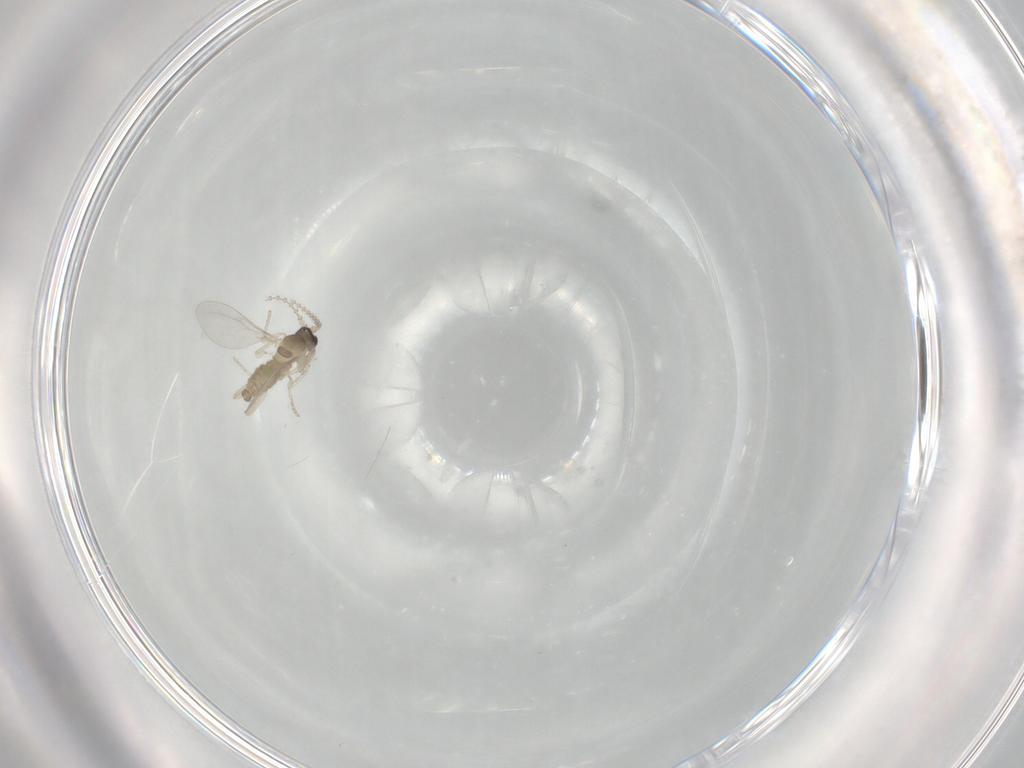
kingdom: Animalia
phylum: Arthropoda
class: Insecta
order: Diptera
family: Cecidomyiidae
